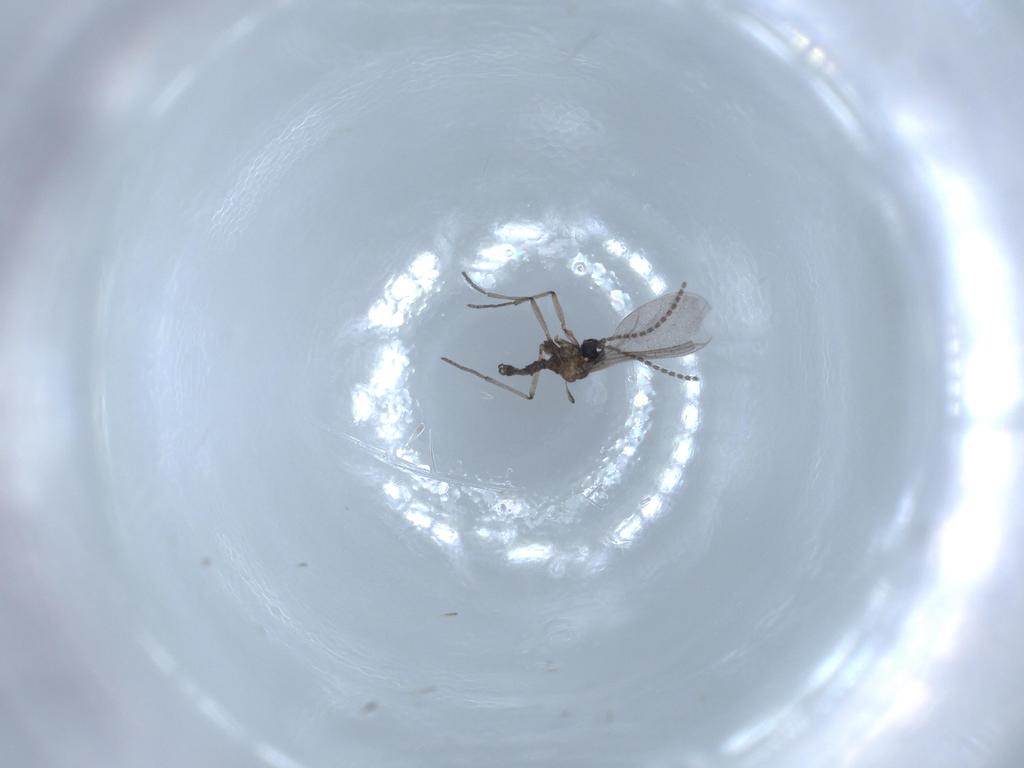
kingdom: Animalia
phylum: Arthropoda
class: Insecta
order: Diptera
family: Sciaridae
